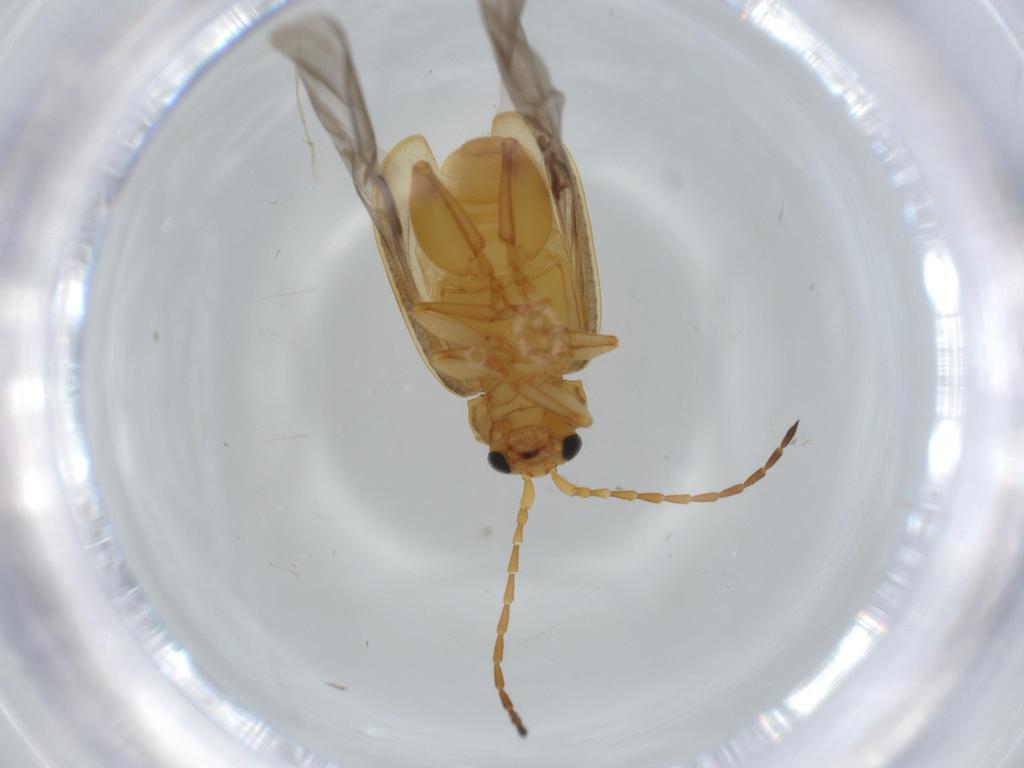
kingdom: Animalia
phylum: Arthropoda
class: Insecta
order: Coleoptera
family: Chrysomelidae
